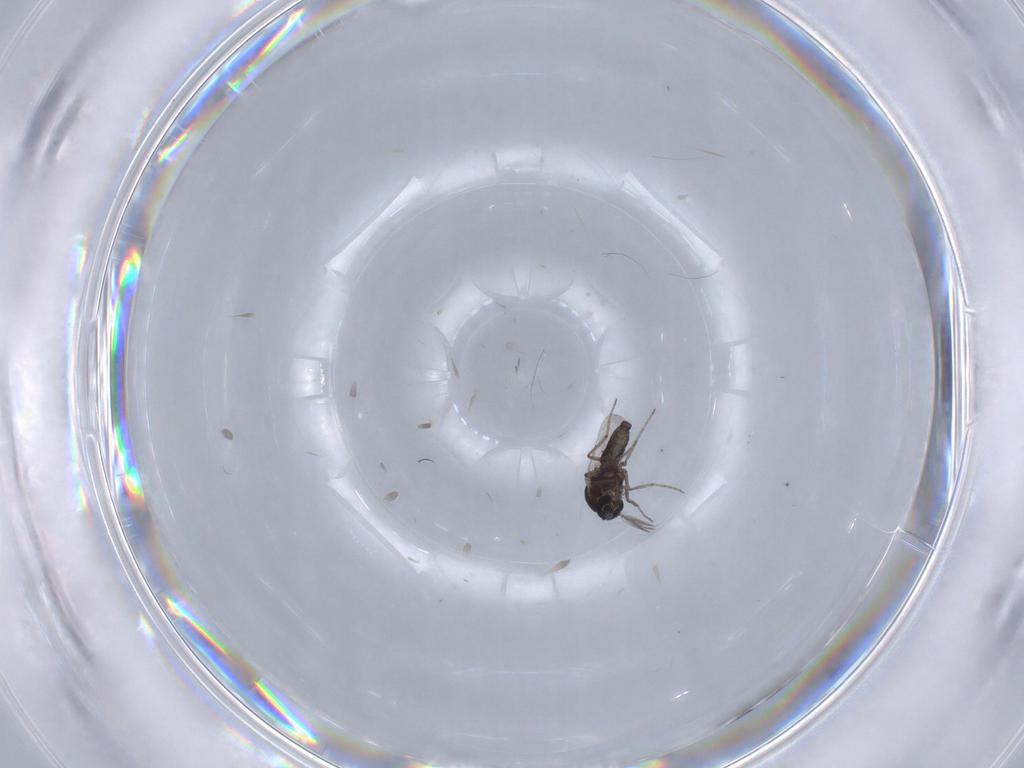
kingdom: Animalia
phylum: Arthropoda
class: Insecta
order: Diptera
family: Ceratopogonidae
